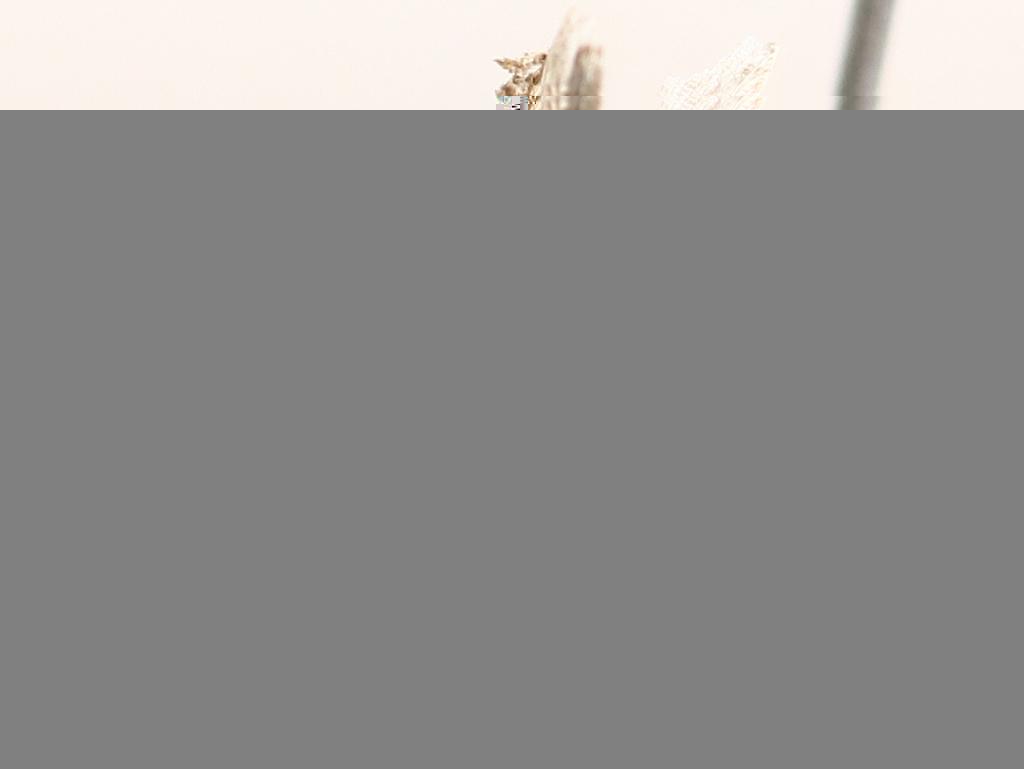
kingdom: Animalia
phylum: Arthropoda
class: Insecta
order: Diptera
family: Phoridae
